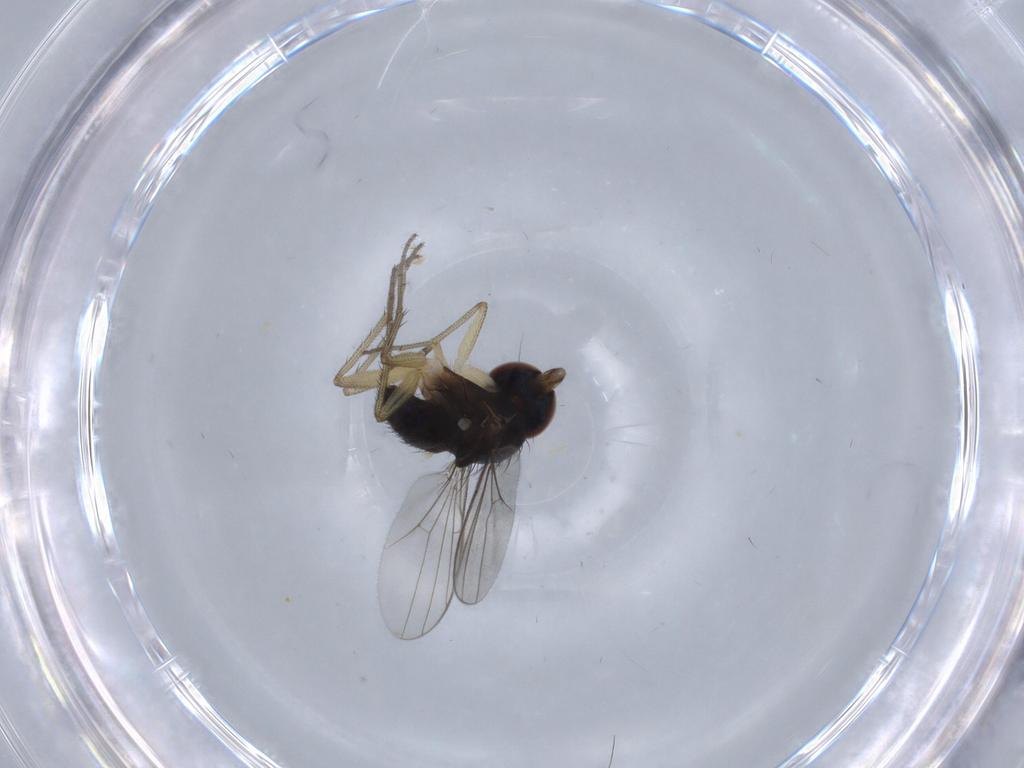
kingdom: Animalia
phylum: Arthropoda
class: Insecta
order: Diptera
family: Dolichopodidae
